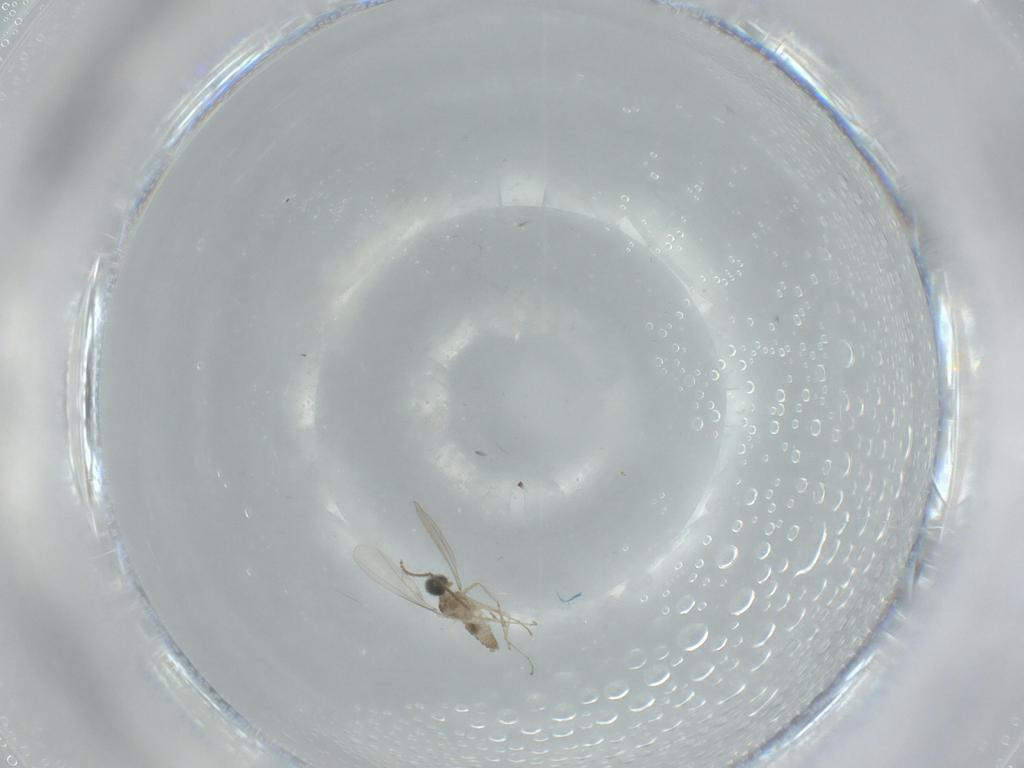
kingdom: Animalia
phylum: Arthropoda
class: Insecta
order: Diptera
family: Cecidomyiidae
